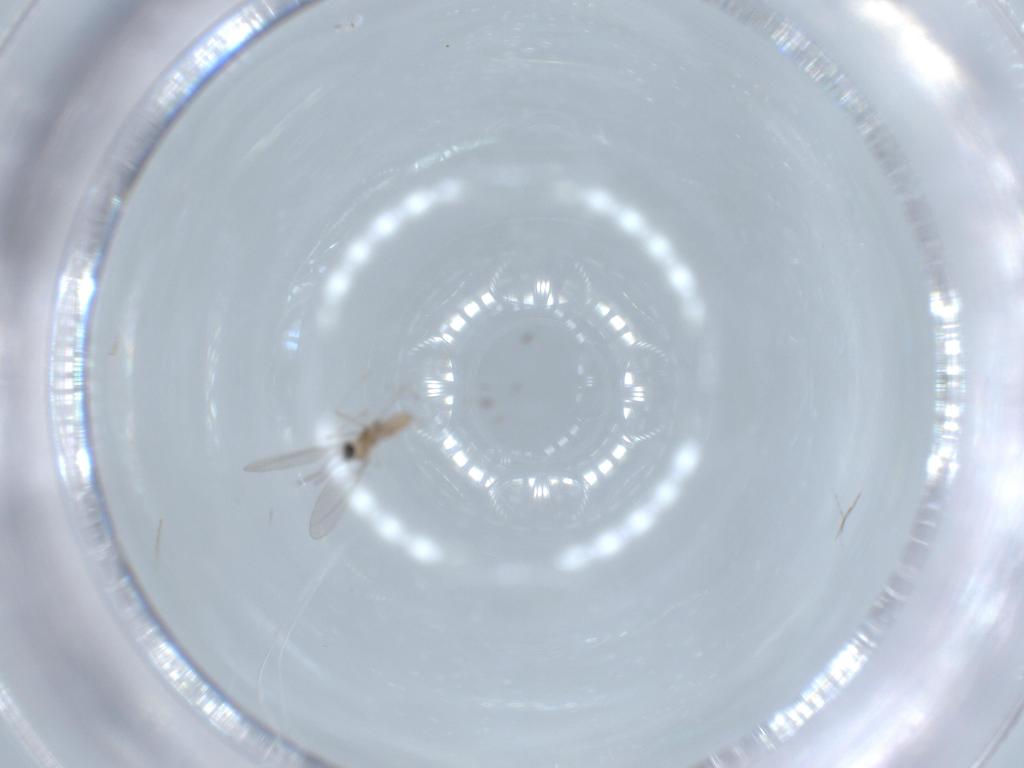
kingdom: Animalia
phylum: Arthropoda
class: Insecta
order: Diptera
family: Cecidomyiidae
